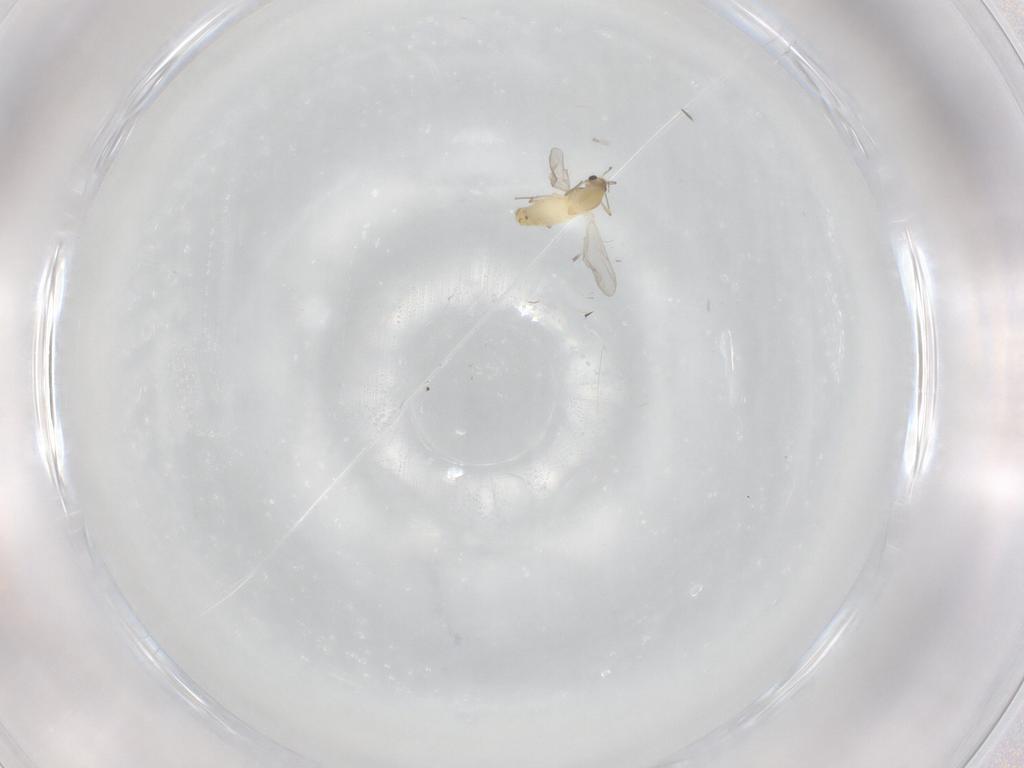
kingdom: Animalia
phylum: Arthropoda
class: Insecta
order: Diptera
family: Chironomidae
